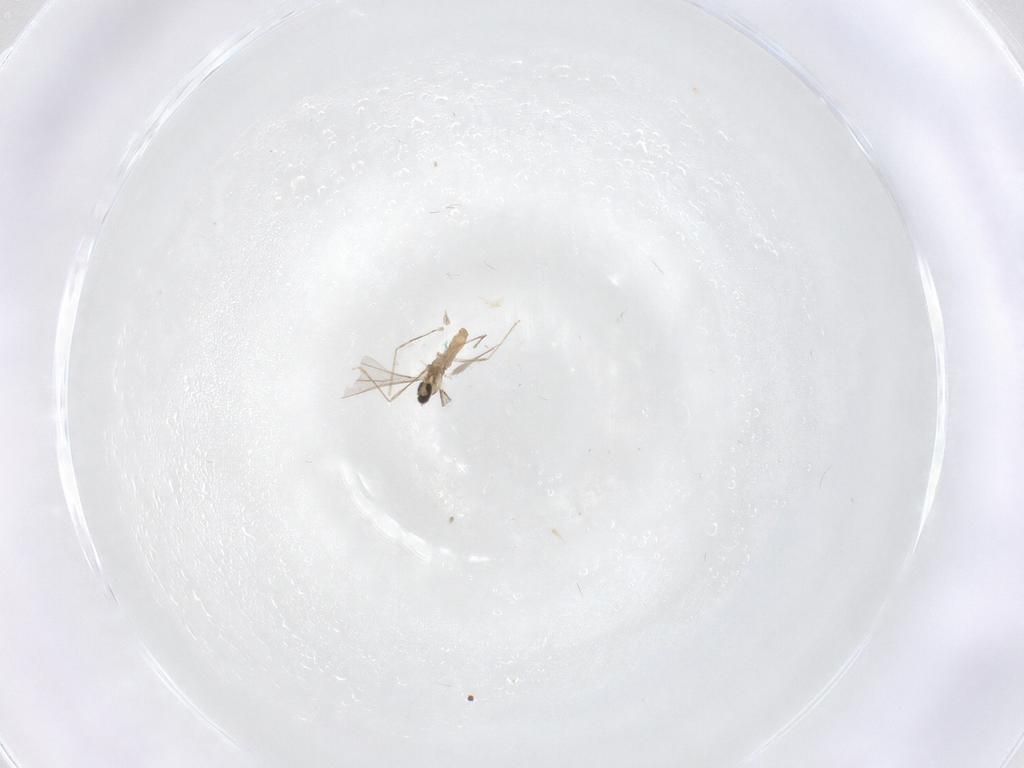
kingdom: Animalia
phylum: Arthropoda
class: Insecta
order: Diptera
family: Cecidomyiidae
